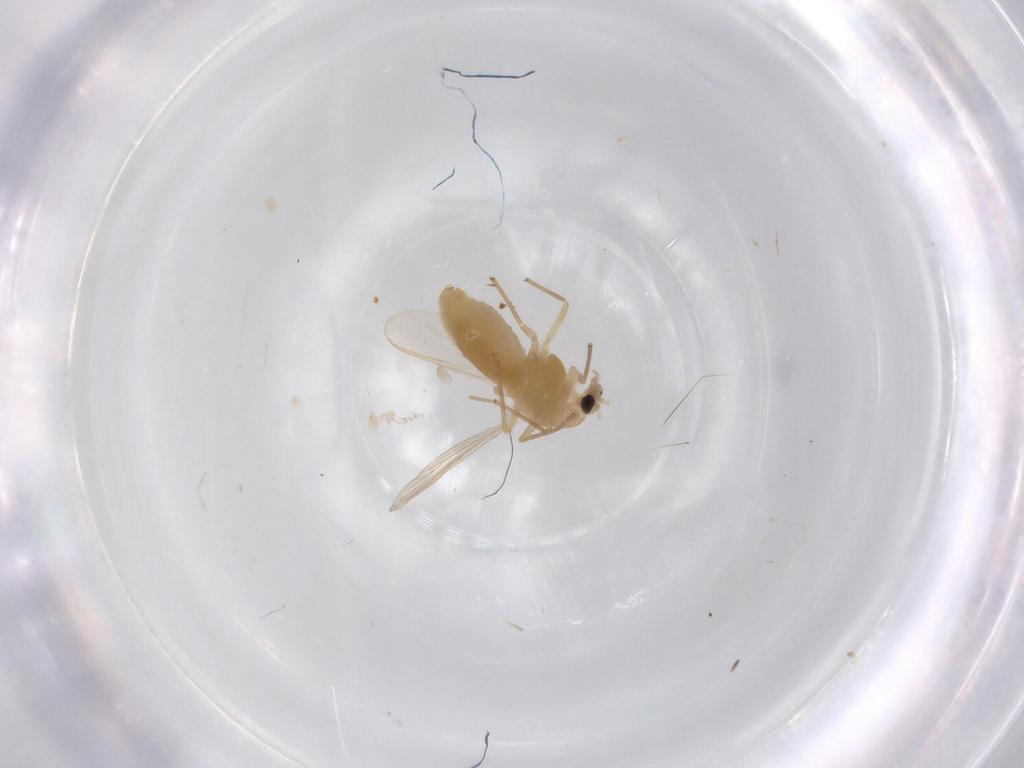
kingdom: Animalia
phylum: Arthropoda
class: Insecta
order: Diptera
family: Chironomidae
